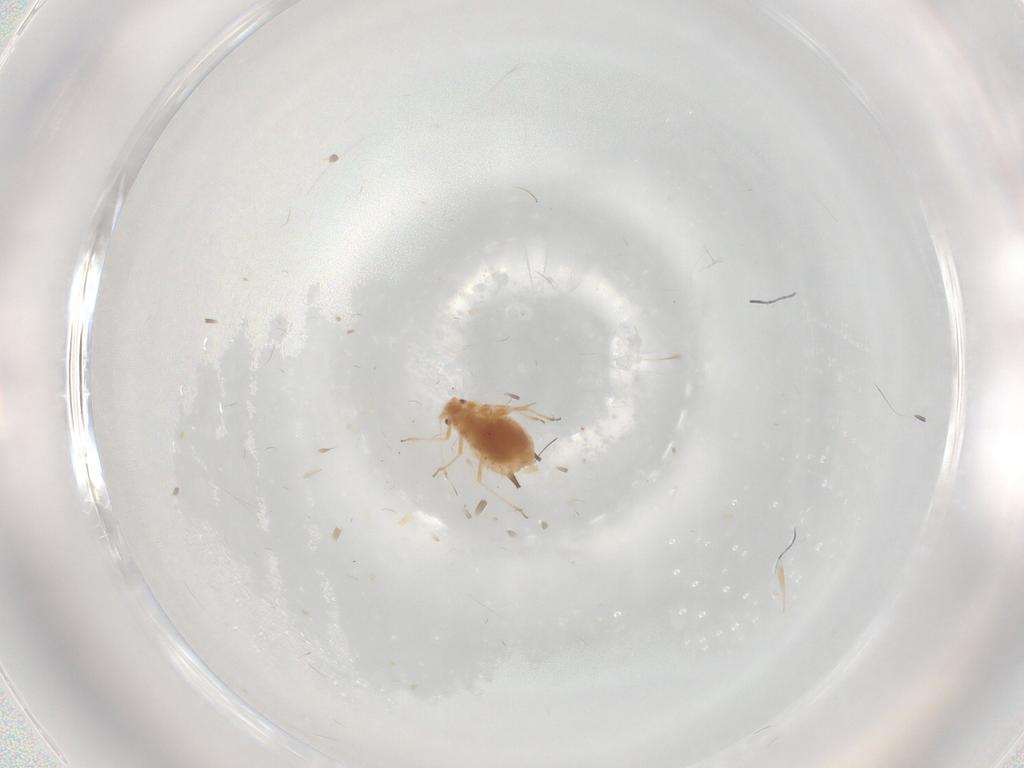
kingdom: Animalia
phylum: Arthropoda
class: Insecta
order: Hemiptera
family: Aphididae
